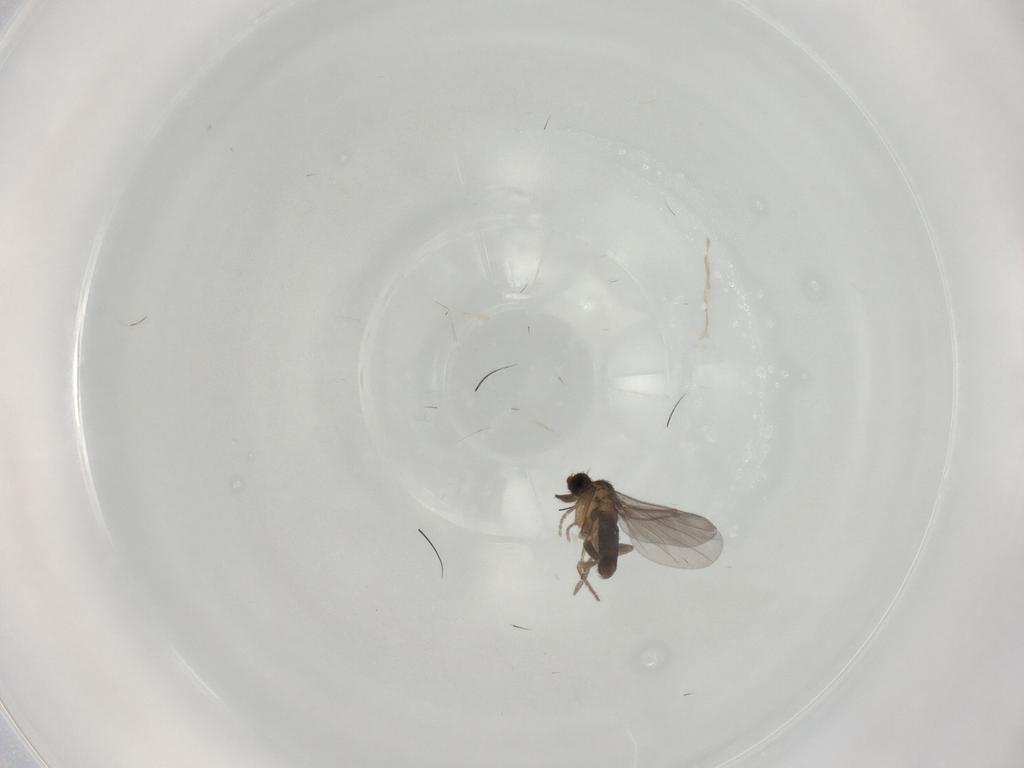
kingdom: Animalia
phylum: Arthropoda
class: Insecta
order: Diptera
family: Dolichopodidae
